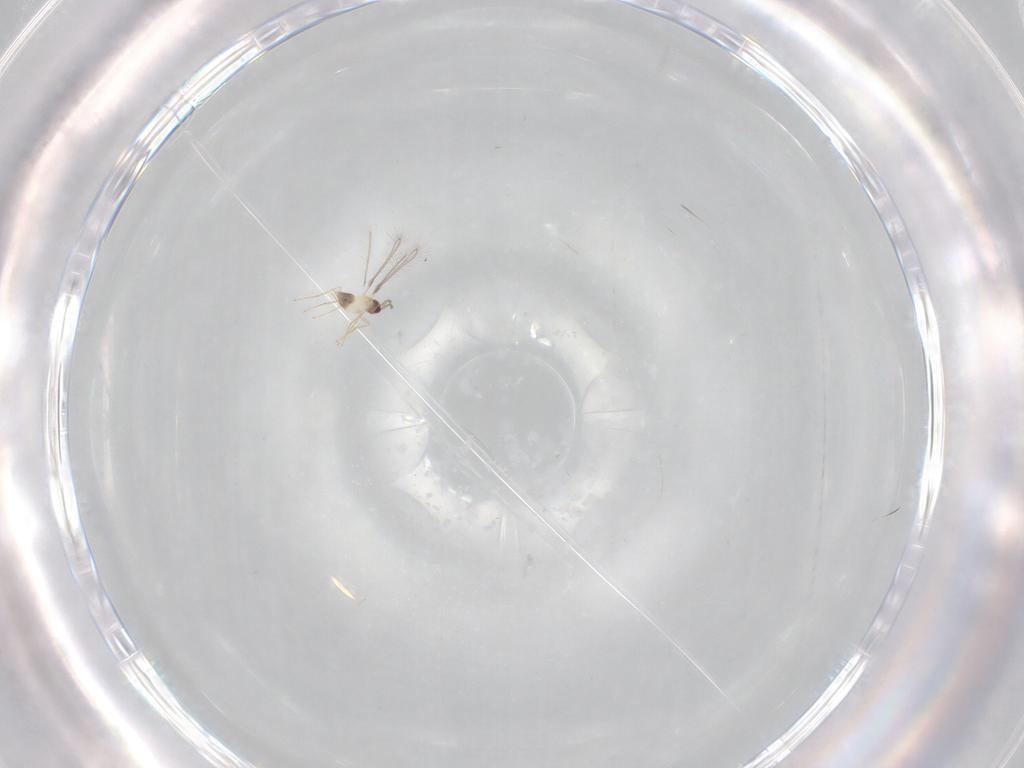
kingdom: Animalia
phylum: Arthropoda
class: Insecta
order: Hymenoptera
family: Mymaridae
